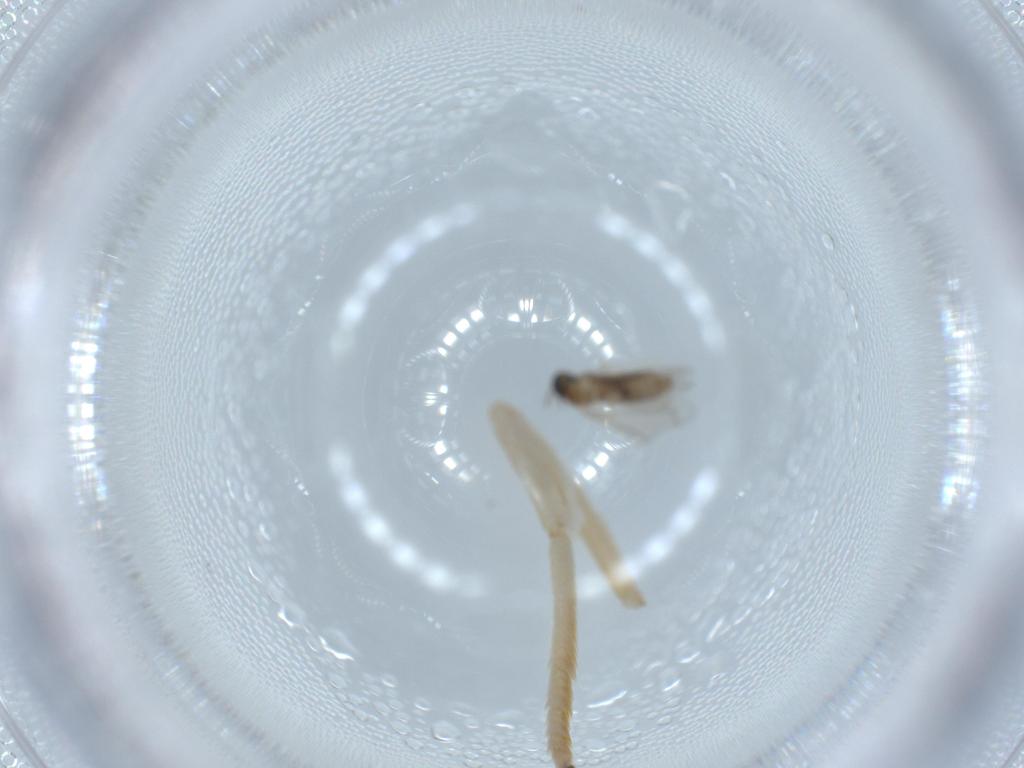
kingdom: Animalia
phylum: Arthropoda
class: Insecta
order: Diptera
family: Sciaridae
